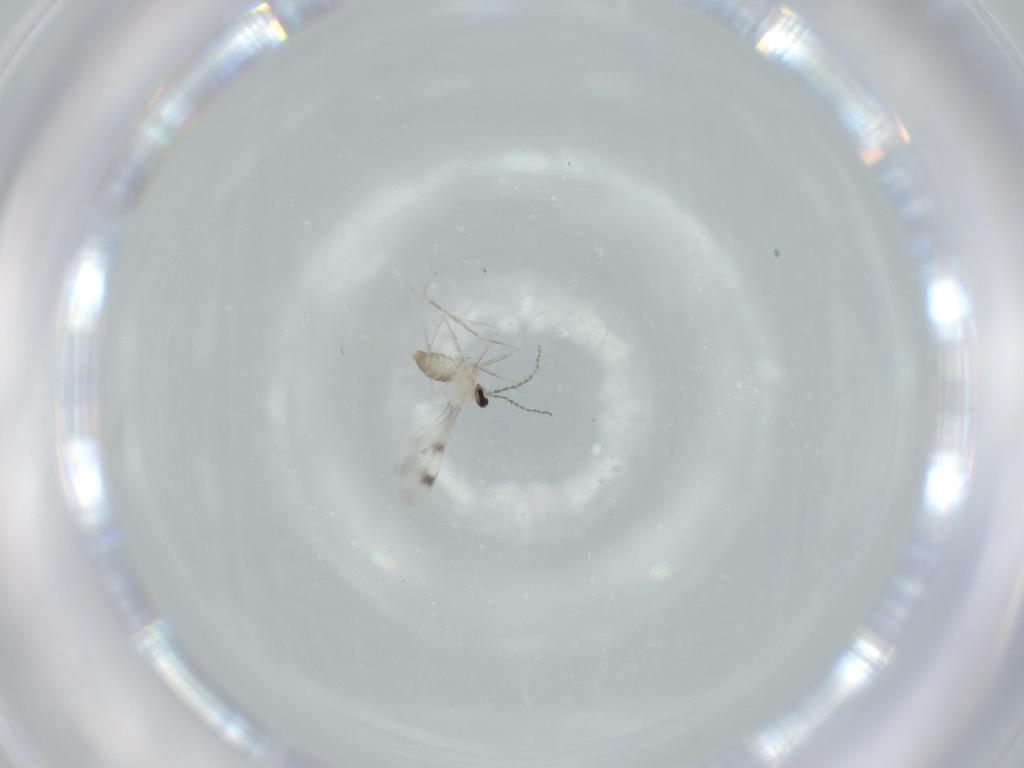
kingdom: Animalia
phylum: Arthropoda
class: Insecta
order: Diptera
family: Cecidomyiidae
